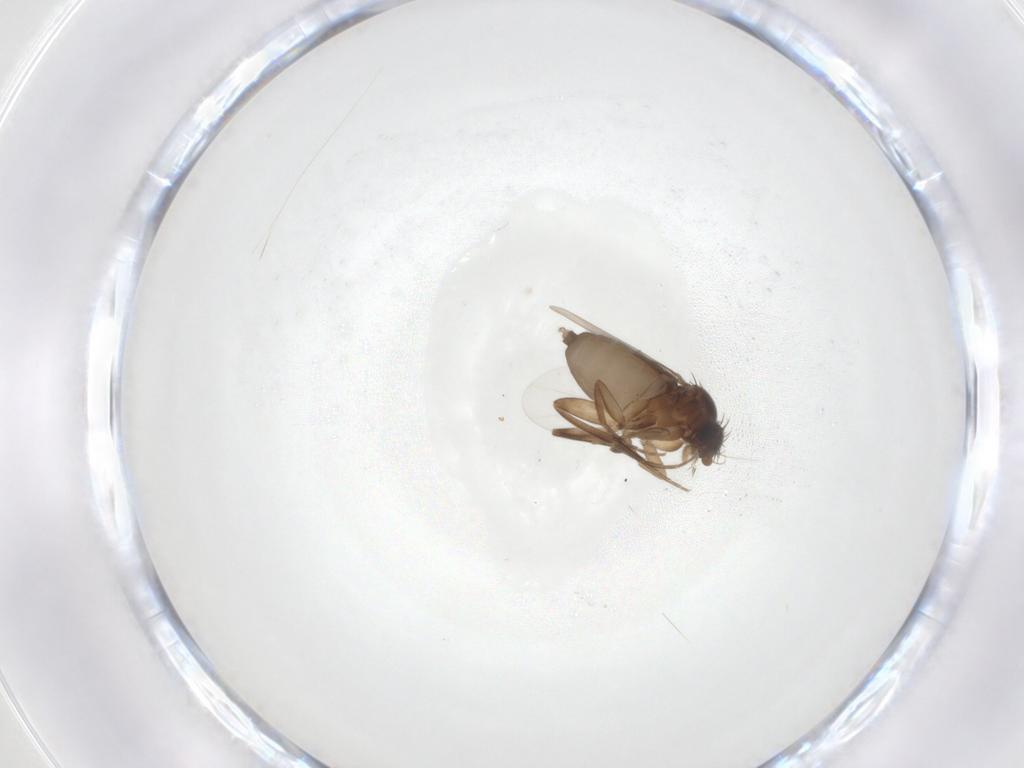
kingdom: Animalia
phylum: Arthropoda
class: Insecta
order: Diptera
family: Phoridae
